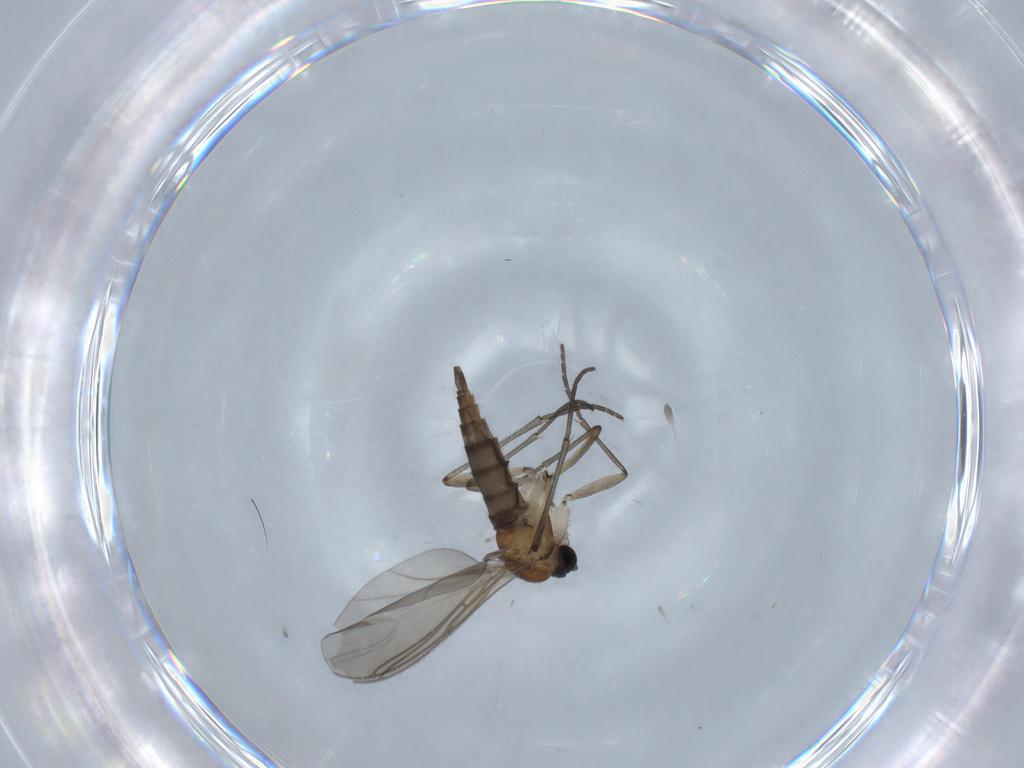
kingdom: Animalia
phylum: Arthropoda
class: Insecta
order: Diptera
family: Sciaridae
